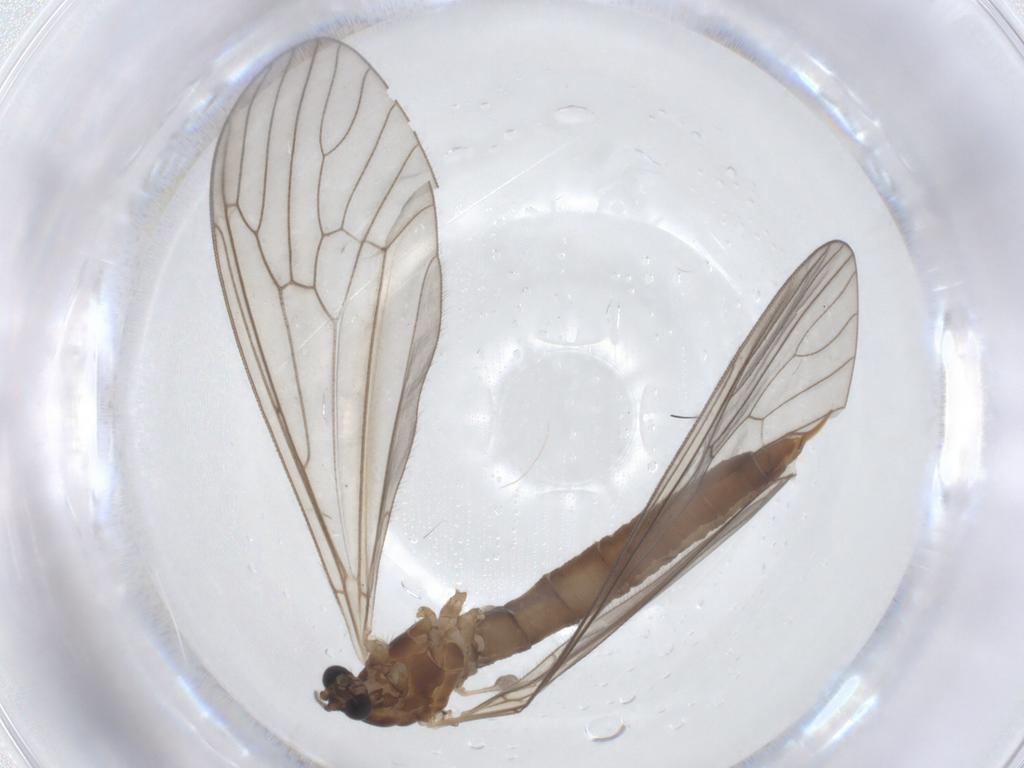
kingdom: Animalia
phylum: Arthropoda
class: Insecta
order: Diptera
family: Trichoceridae
